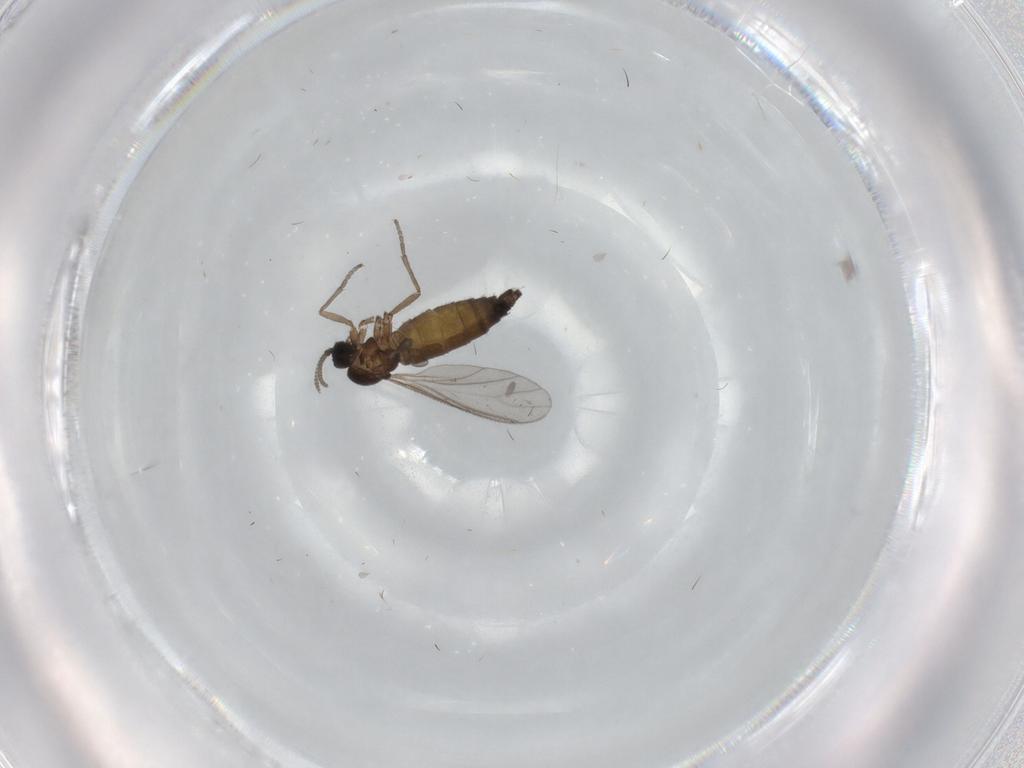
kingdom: Animalia
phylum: Arthropoda
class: Insecta
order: Diptera
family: Sciaridae
